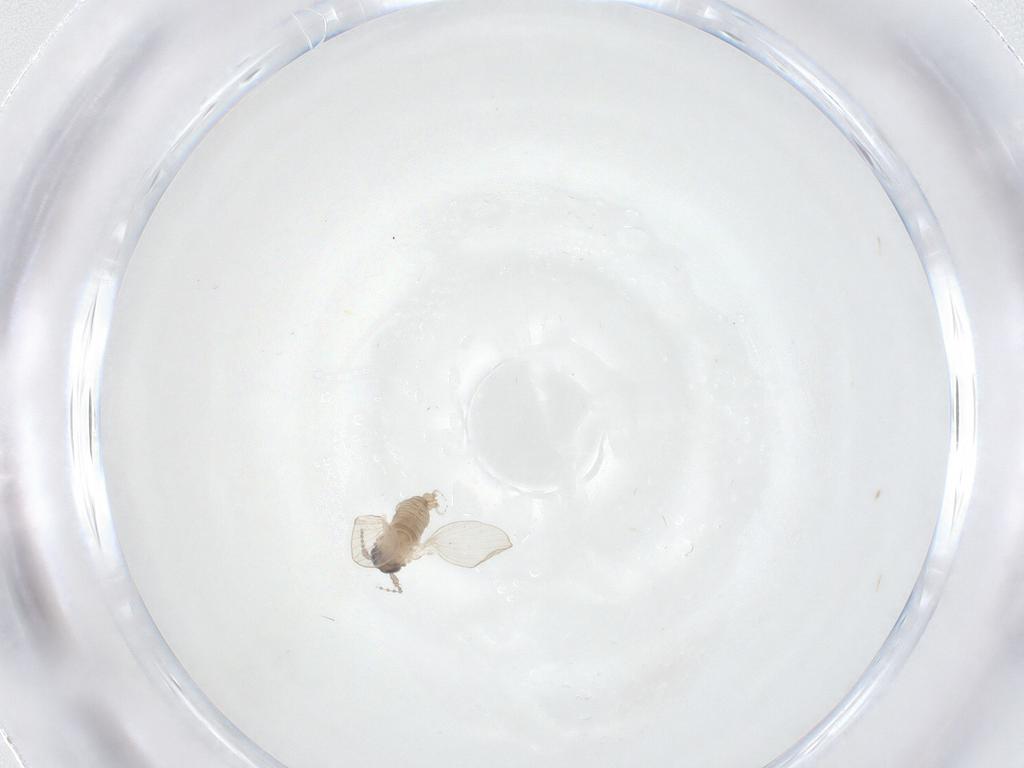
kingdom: Animalia
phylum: Arthropoda
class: Insecta
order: Diptera
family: Psychodidae
